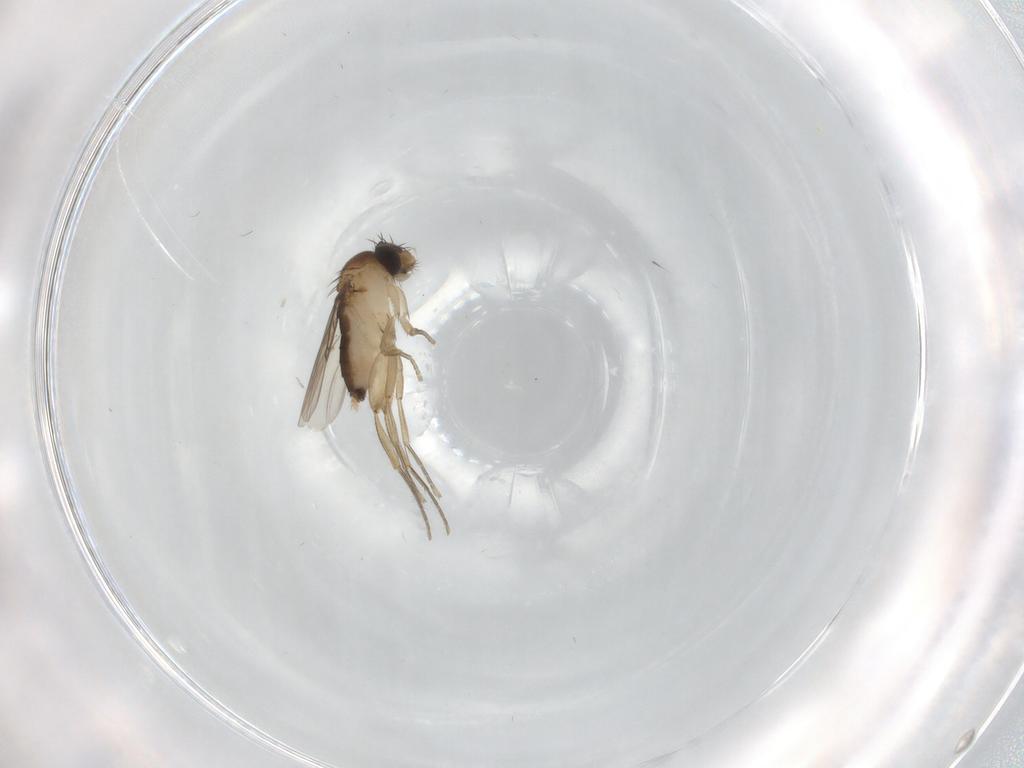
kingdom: Animalia
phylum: Arthropoda
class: Insecta
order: Diptera
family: Phoridae
